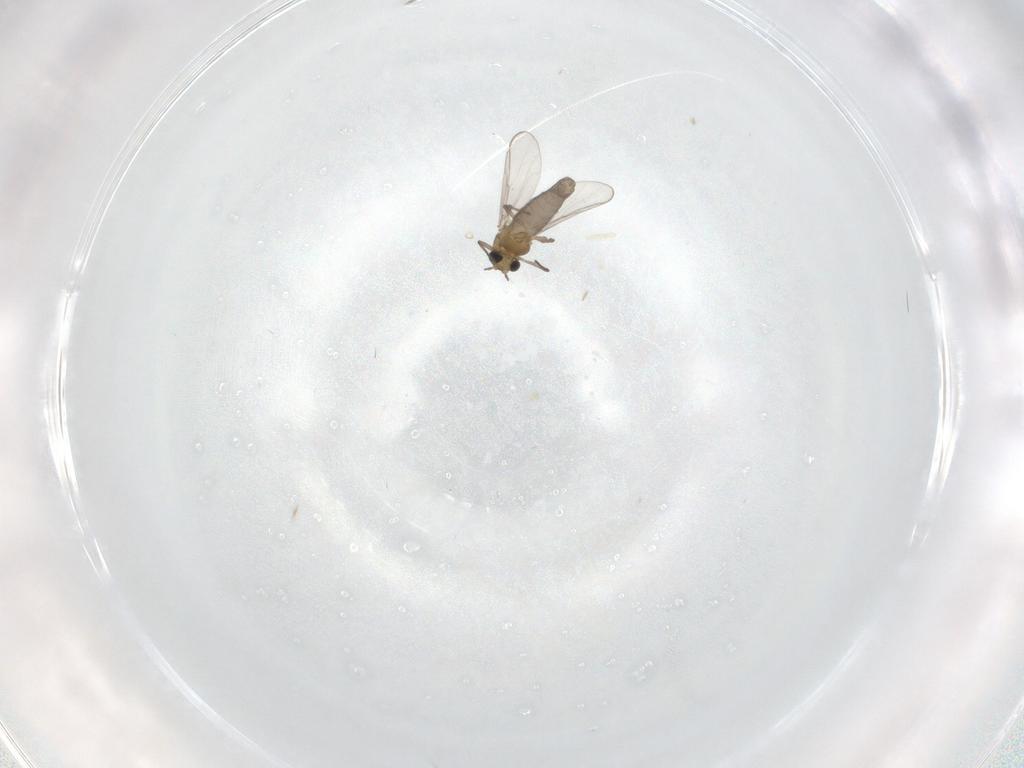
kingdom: Animalia
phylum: Arthropoda
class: Insecta
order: Diptera
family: Chironomidae
